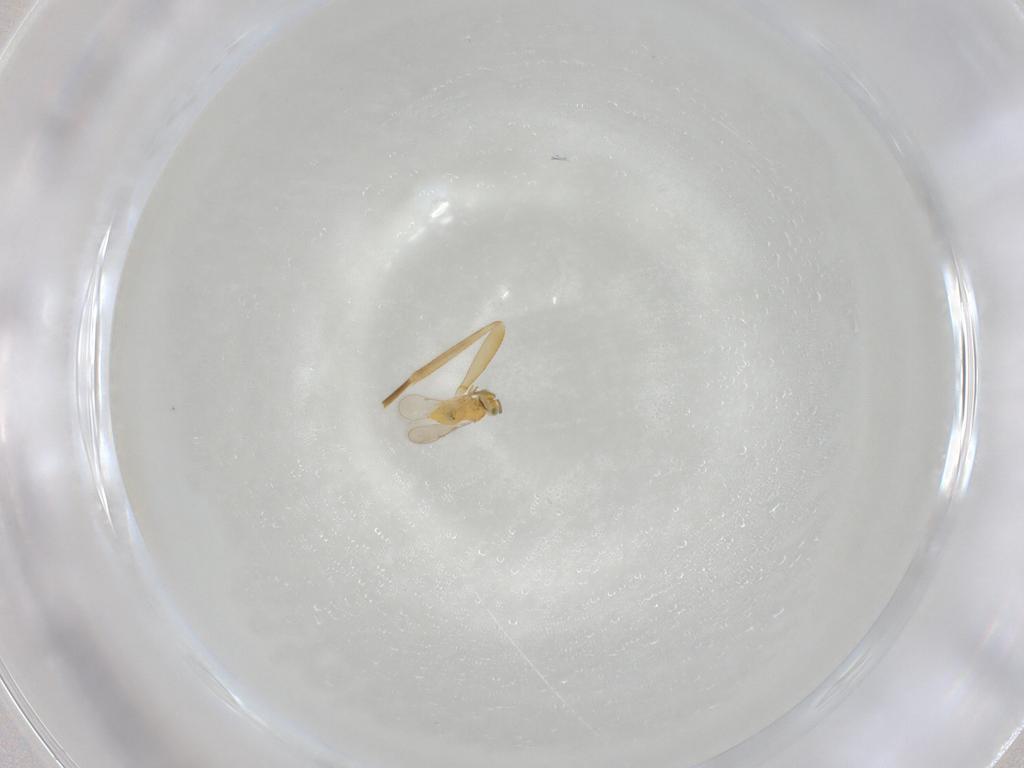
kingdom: Animalia
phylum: Arthropoda
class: Insecta
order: Hymenoptera
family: Aphelinidae
